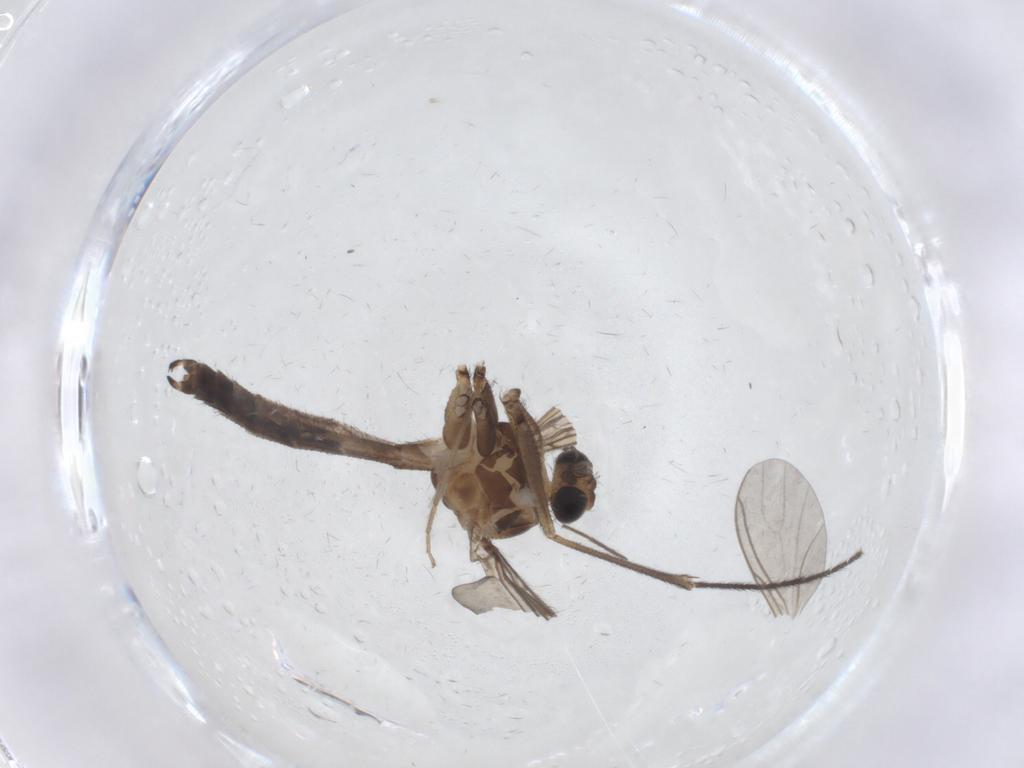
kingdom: Animalia
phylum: Arthropoda
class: Insecta
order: Diptera
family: Keroplatidae
